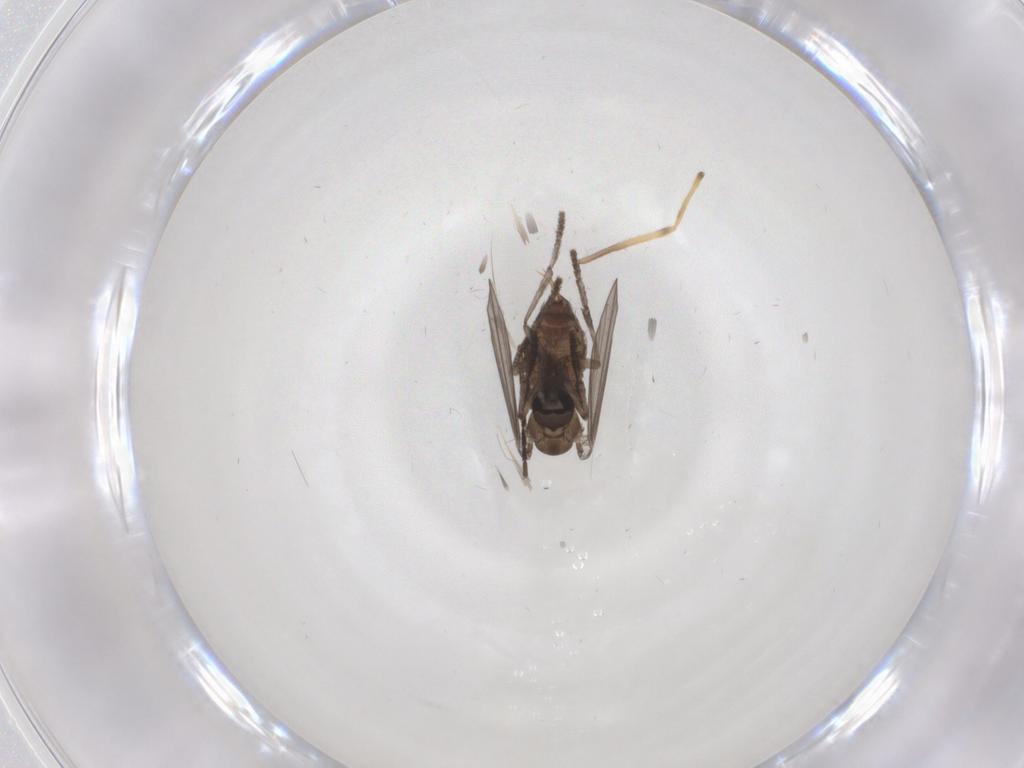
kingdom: Animalia
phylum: Arthropoda
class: Insecta
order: Diptera
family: Chironomidae
